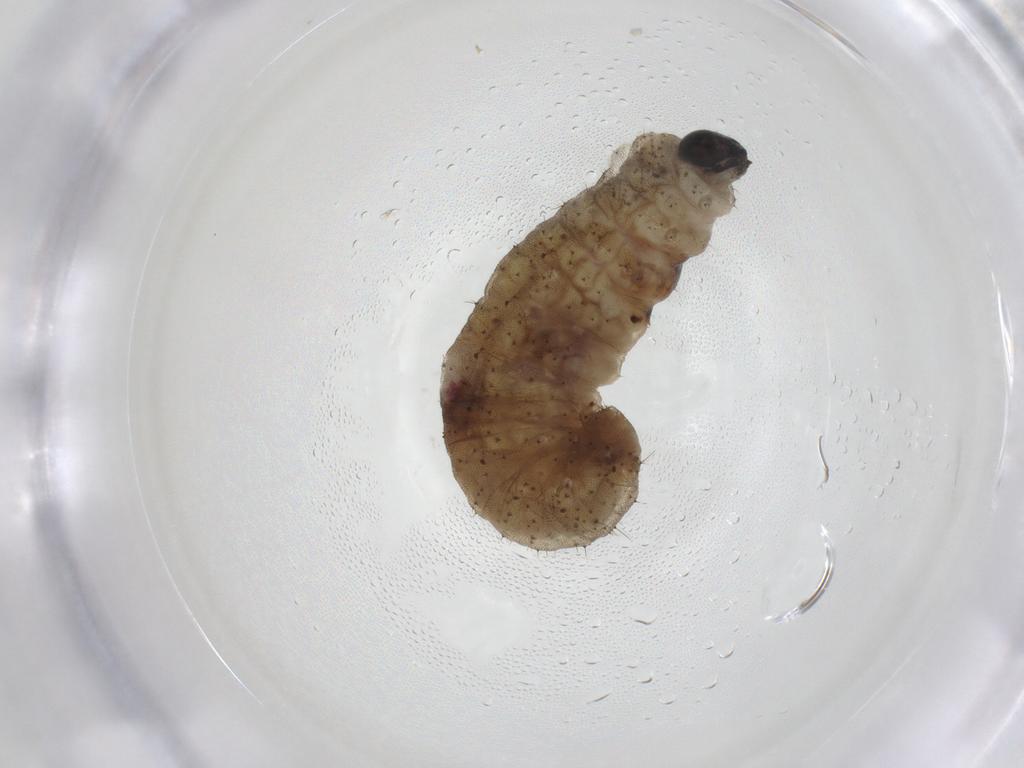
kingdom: Animalia
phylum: Arthropoda
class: Insecta
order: Coleoptera
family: Curculionidae
